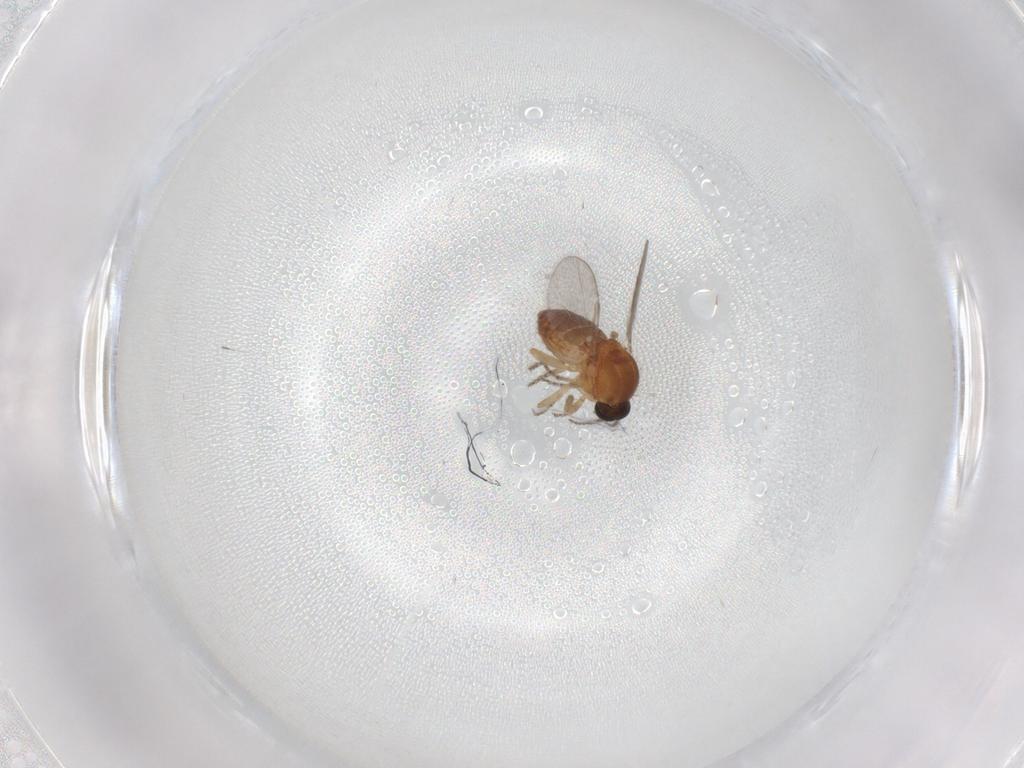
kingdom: Animalia
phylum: Arthropoda
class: Insecta
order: Diptera
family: Ceratopogonidae
